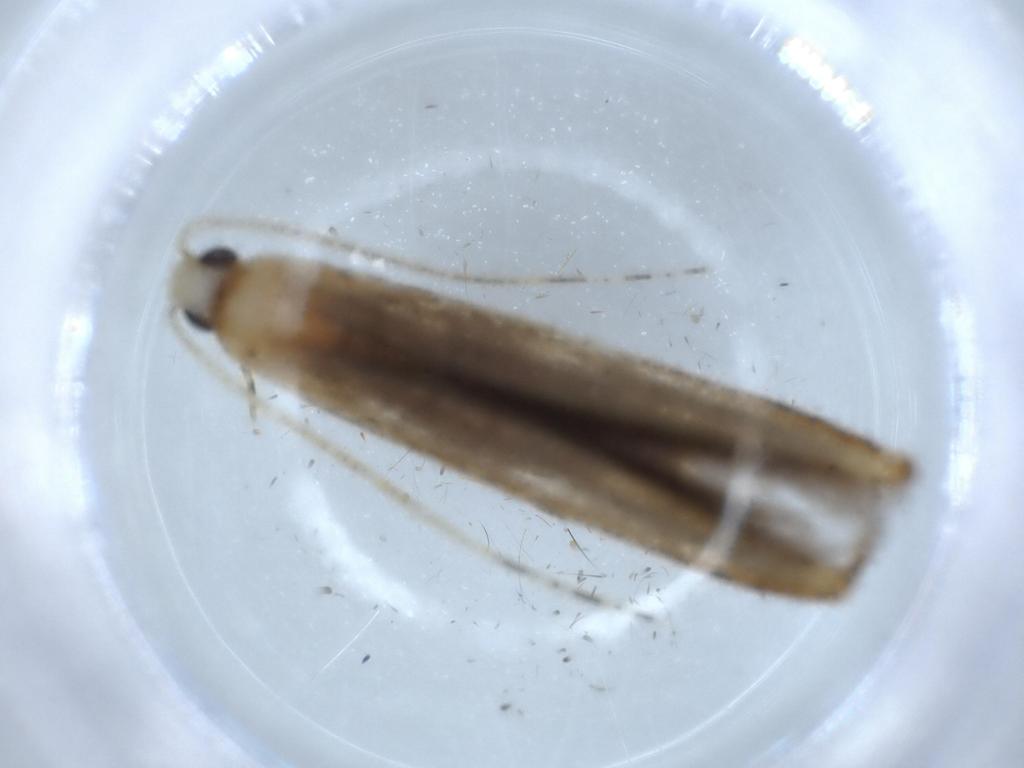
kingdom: Animalia
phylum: Arthropoda
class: Insecta
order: Lepidoptera
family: Batrachedridae
